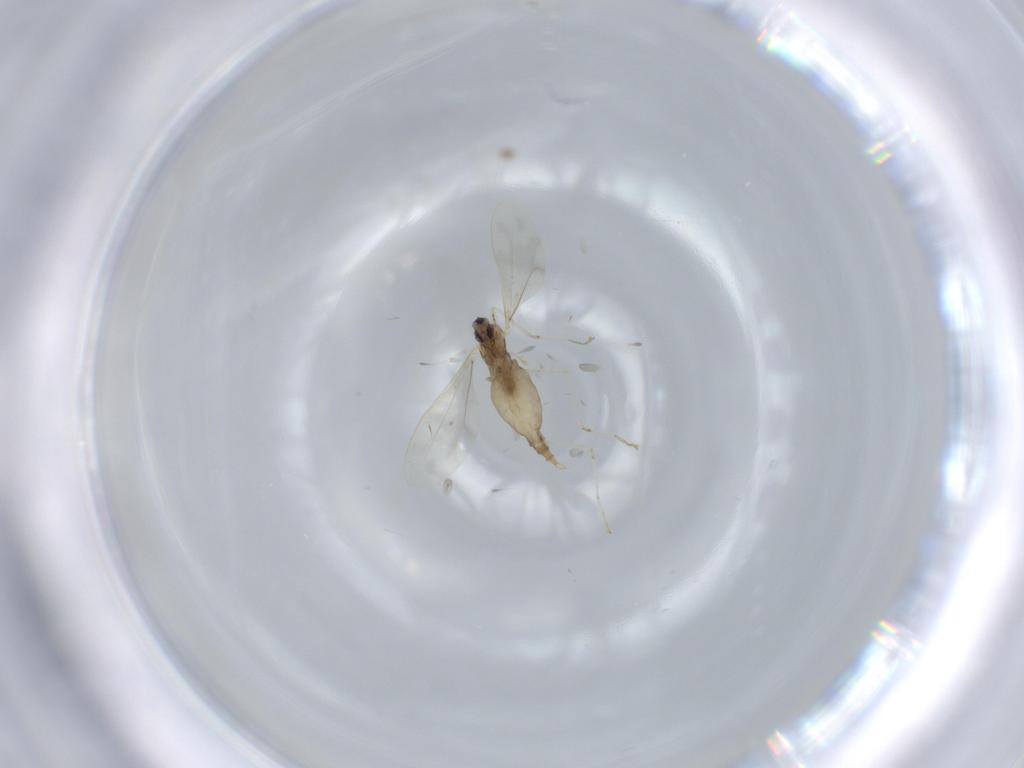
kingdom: Animalia
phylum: Arthropoda
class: Insecta
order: Diptera
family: Cecidomyiidae
